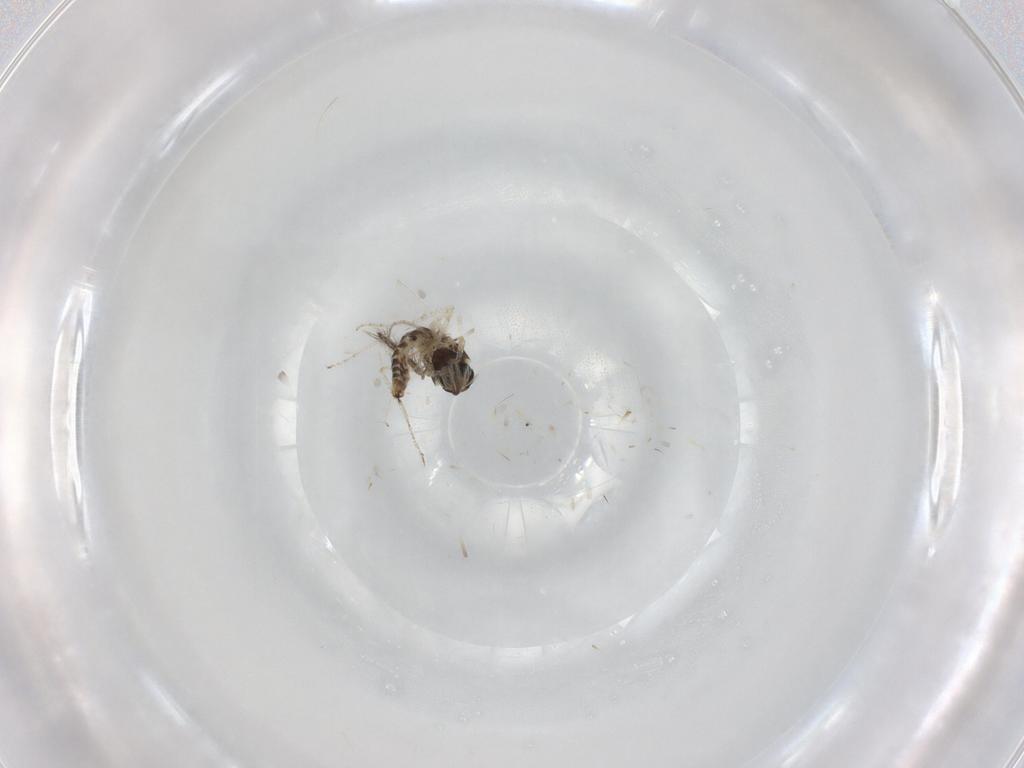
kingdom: Animalia
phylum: Arthropoda
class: Insecta
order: Diptera
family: Ceratopogonidae
